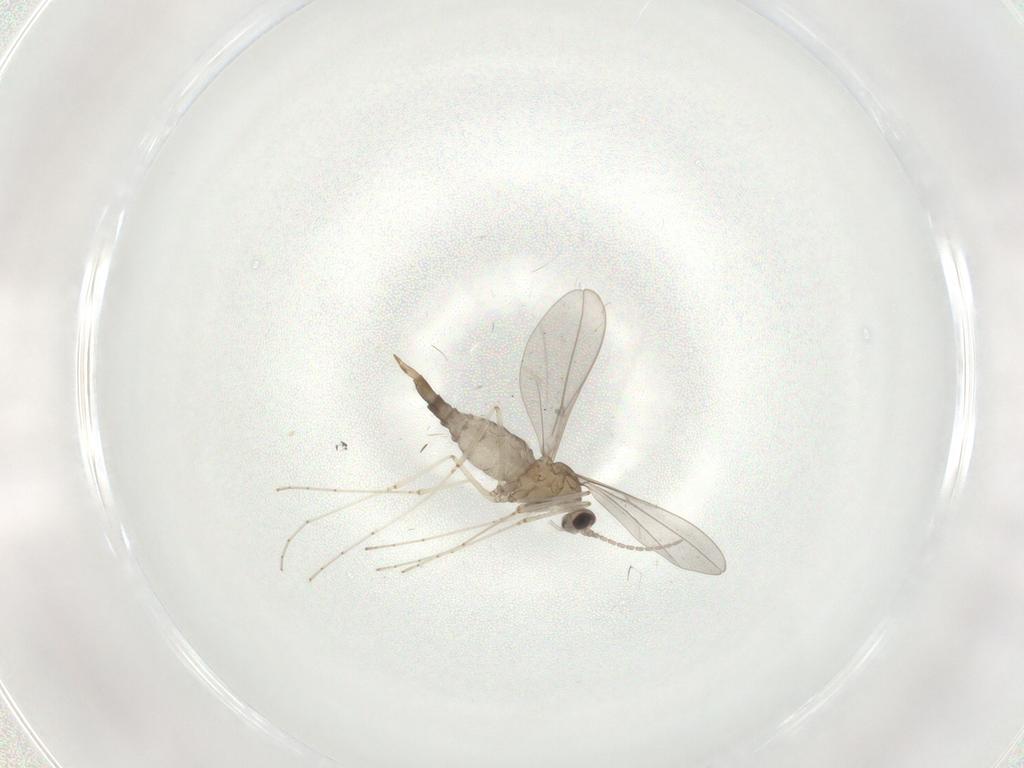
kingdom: Animalia
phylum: Arthropoda
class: Insecta
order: Diptera
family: Cecidomyiidae
